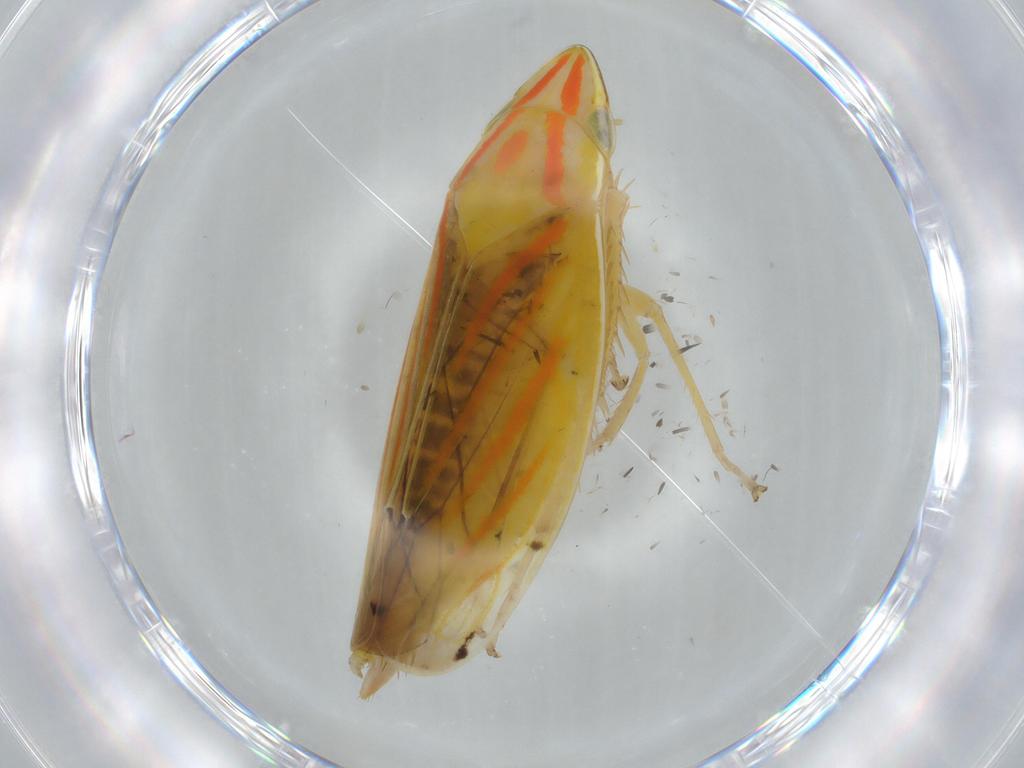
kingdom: Animalia
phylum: Arthropoda
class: Insecta
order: Hemiptera
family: Cicadellidae
